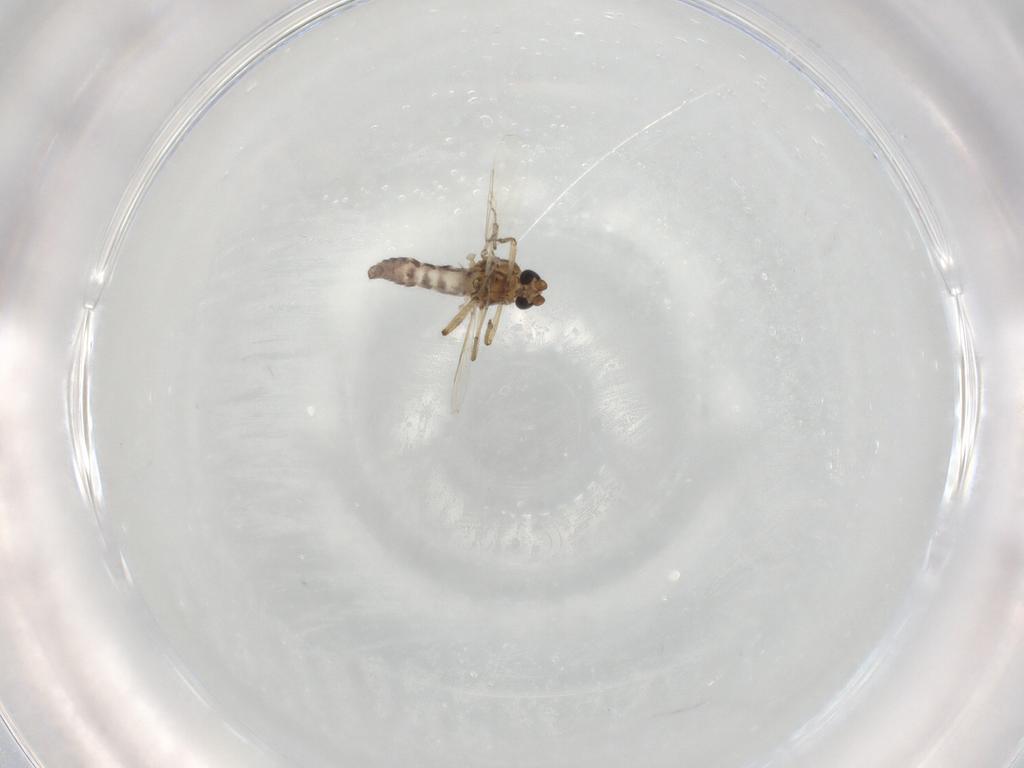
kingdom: Animalia
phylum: Arthropoda
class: Insecta
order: Diptera
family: Ceratopogonidae
